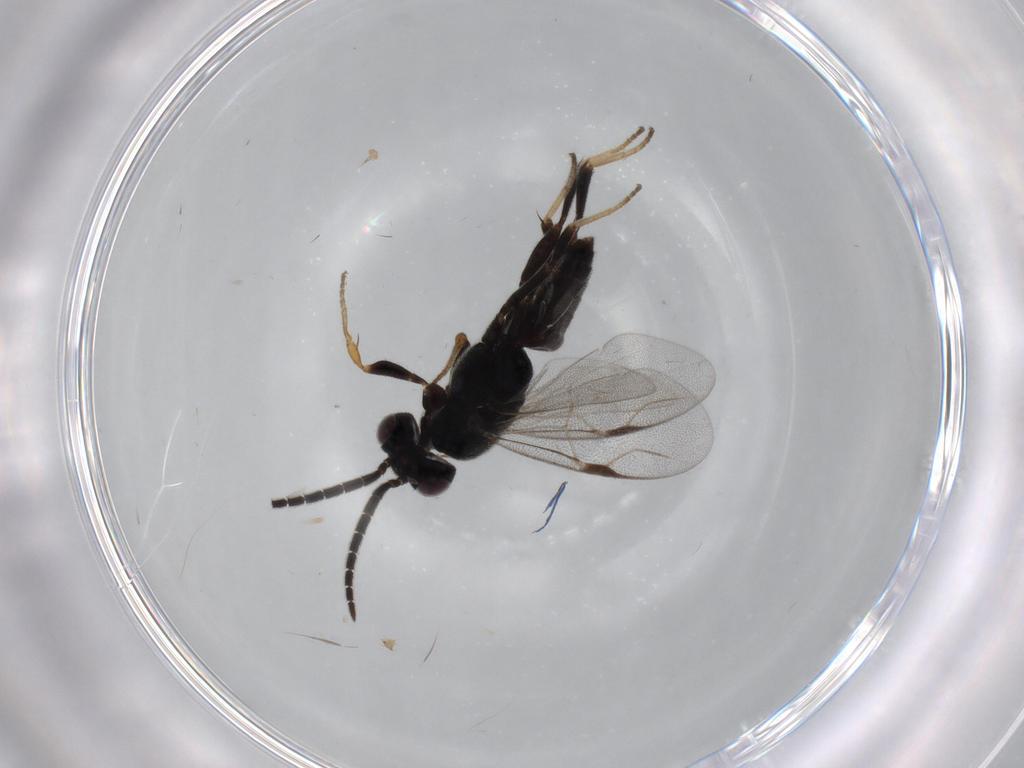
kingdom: Animalia
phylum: Arthropoda
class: Insecta
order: Hymenoptera
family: Dryinidae
